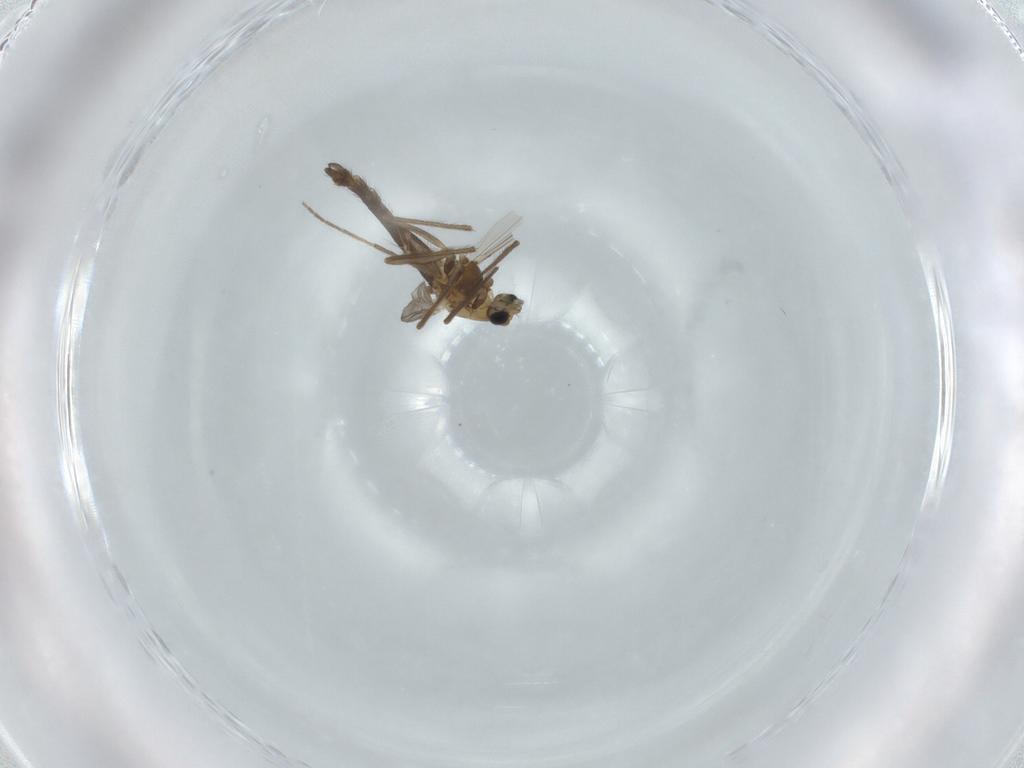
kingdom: Animalia
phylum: Arthropoda
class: Insecta
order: Diptera
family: Chironomidae
